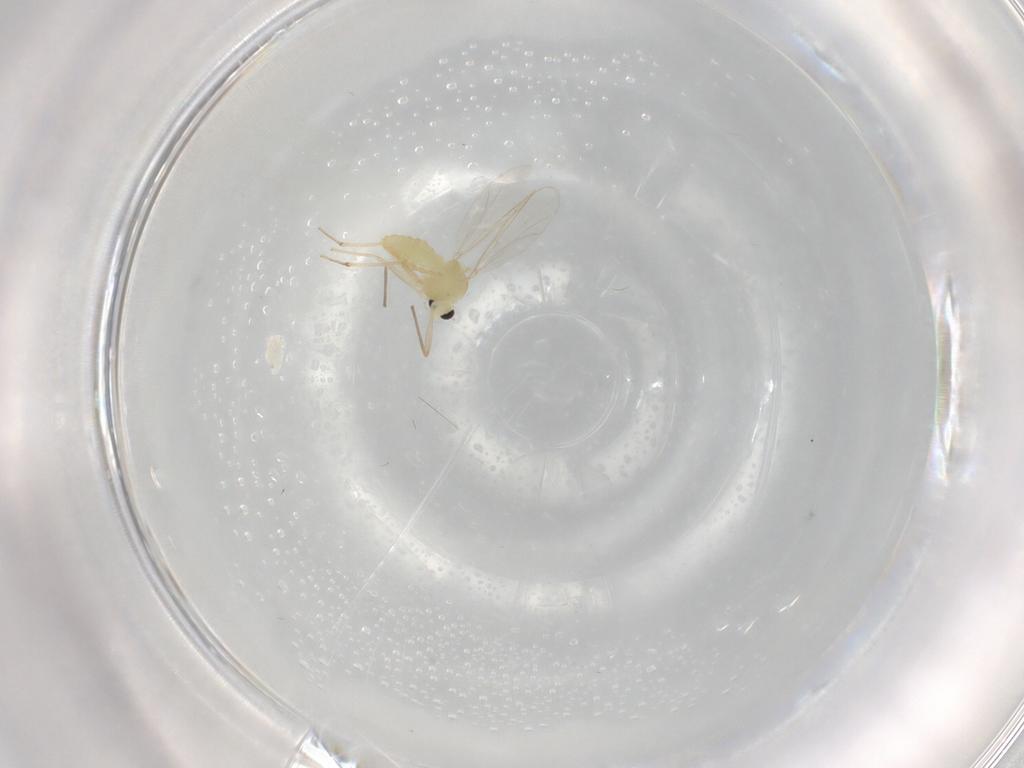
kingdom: Animalia
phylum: Arthropoda
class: Insecta
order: Diptera
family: Chironomidae
